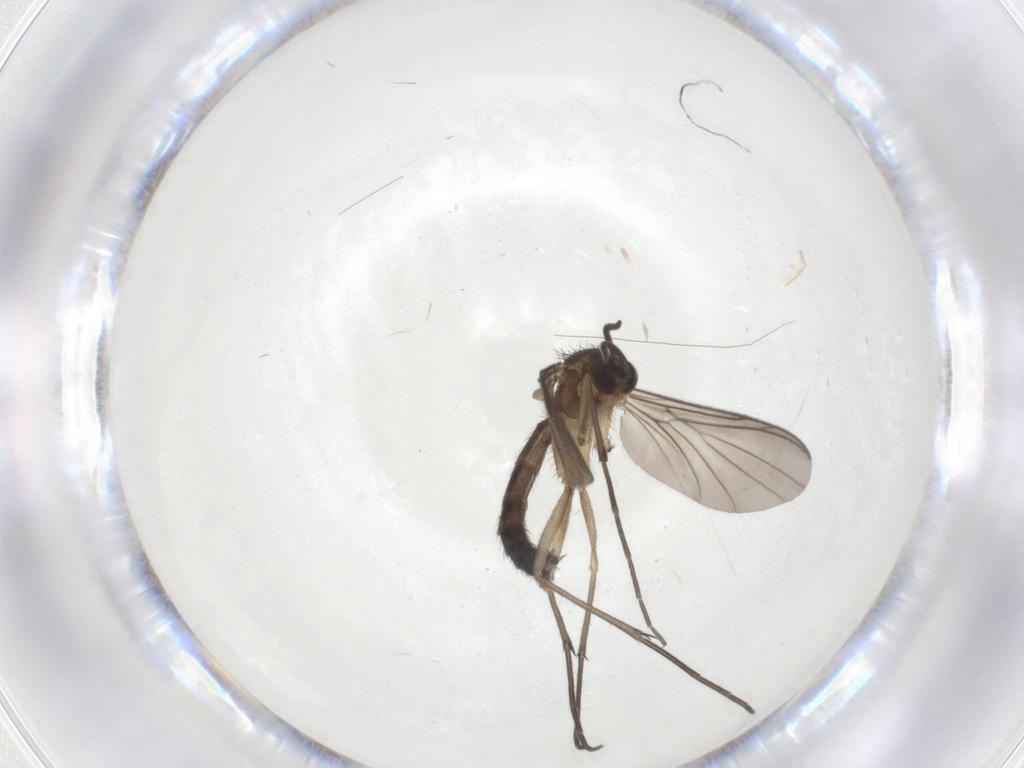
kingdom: Animalia
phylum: Arthropoda
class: Insecta
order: Diptera
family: Keroplatidae
